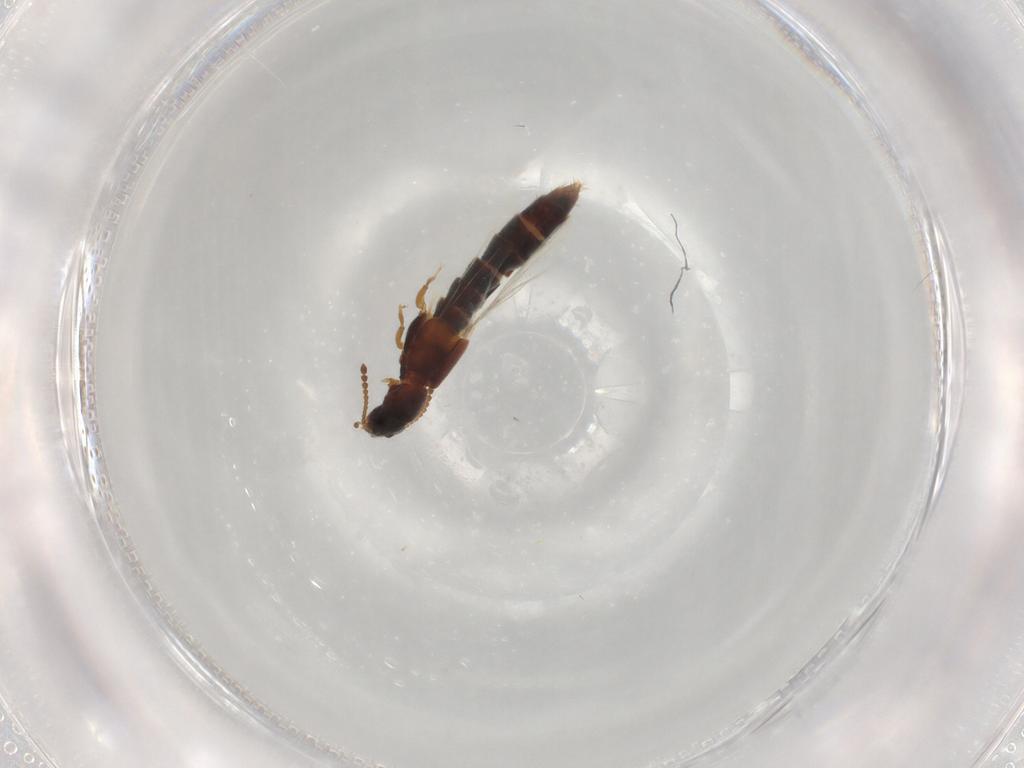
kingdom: Animalia
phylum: Arthropoda
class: Insecta
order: Coleoptera
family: Staphylinidae
